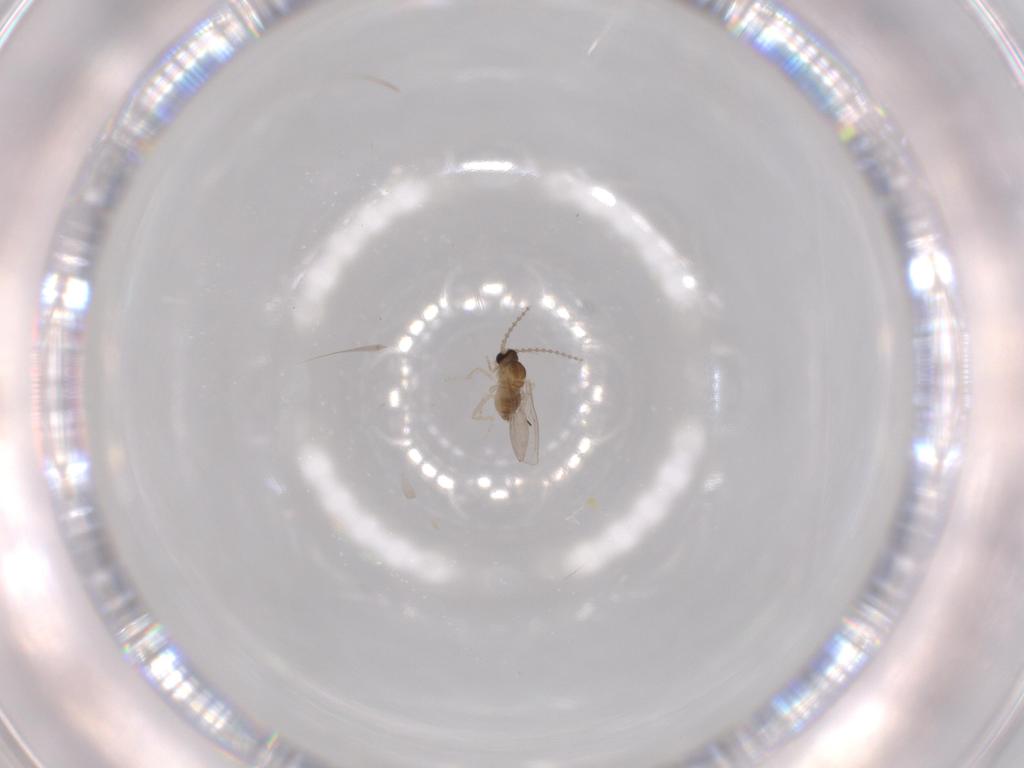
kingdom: Animalia
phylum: Arthropoda
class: Insecta
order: Diptera
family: Cecidomyiidae
